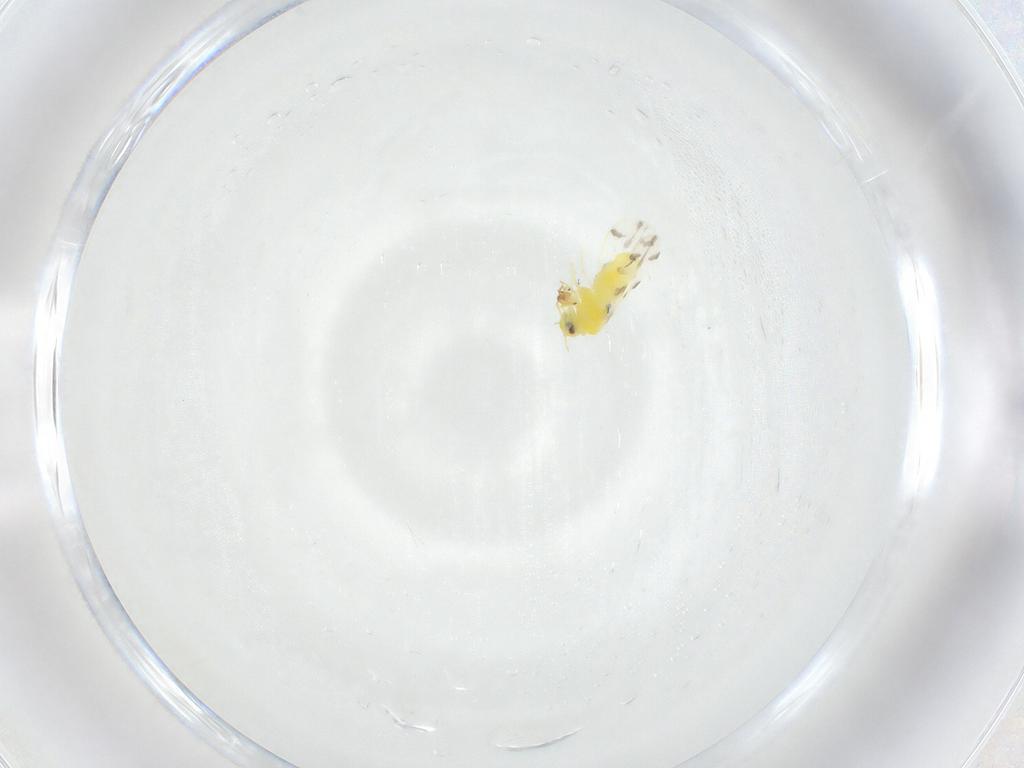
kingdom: Animalia
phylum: Arthropoda
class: Insecta
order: Hemiptera
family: Aleyrodidae
